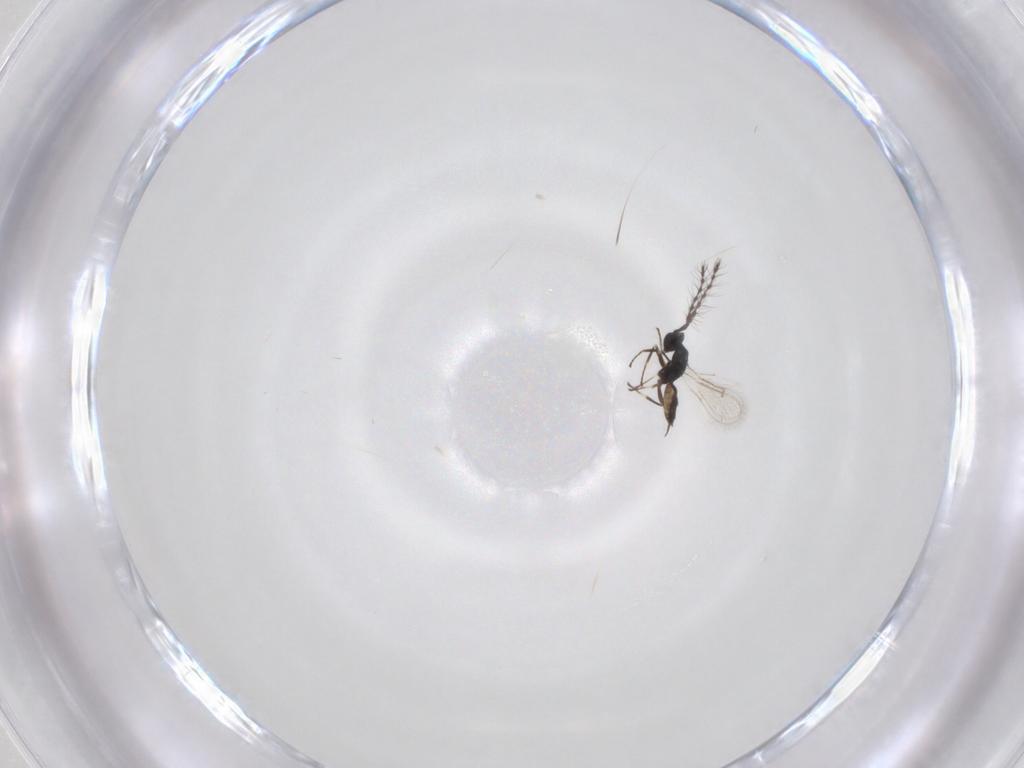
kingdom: Animalia
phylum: Arthropoda
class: Insecta
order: Hymenoptera
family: Eulophidae
